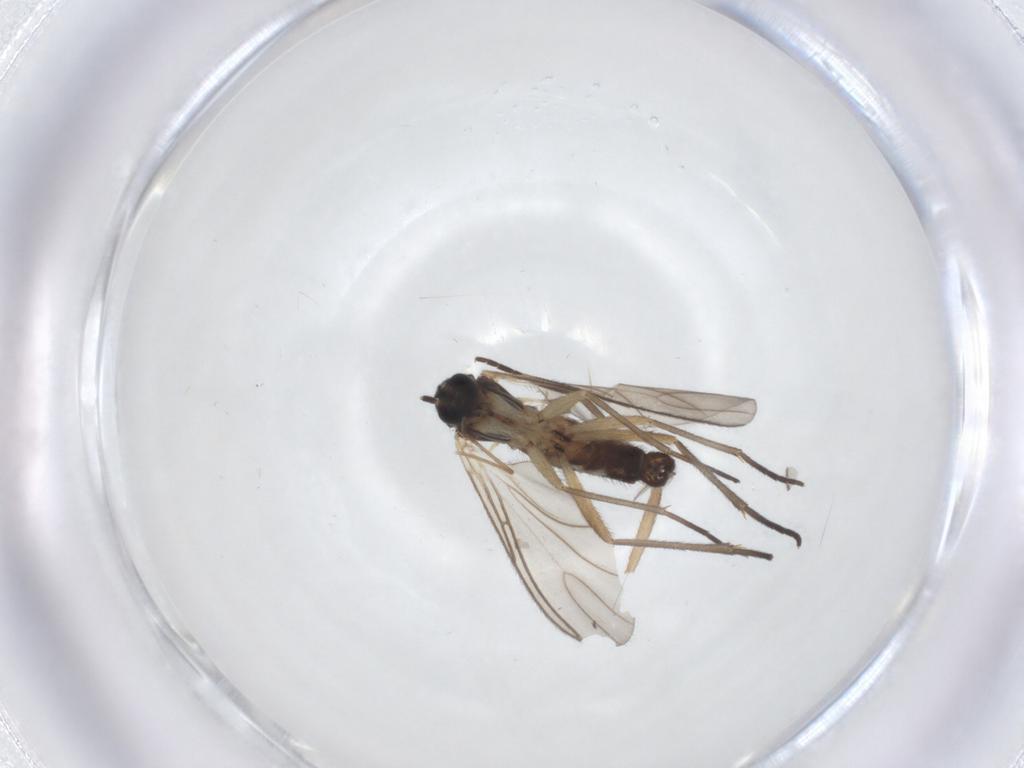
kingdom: Animalia
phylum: Arthropoda
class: Insecta
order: Diptera
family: Sciaridae
